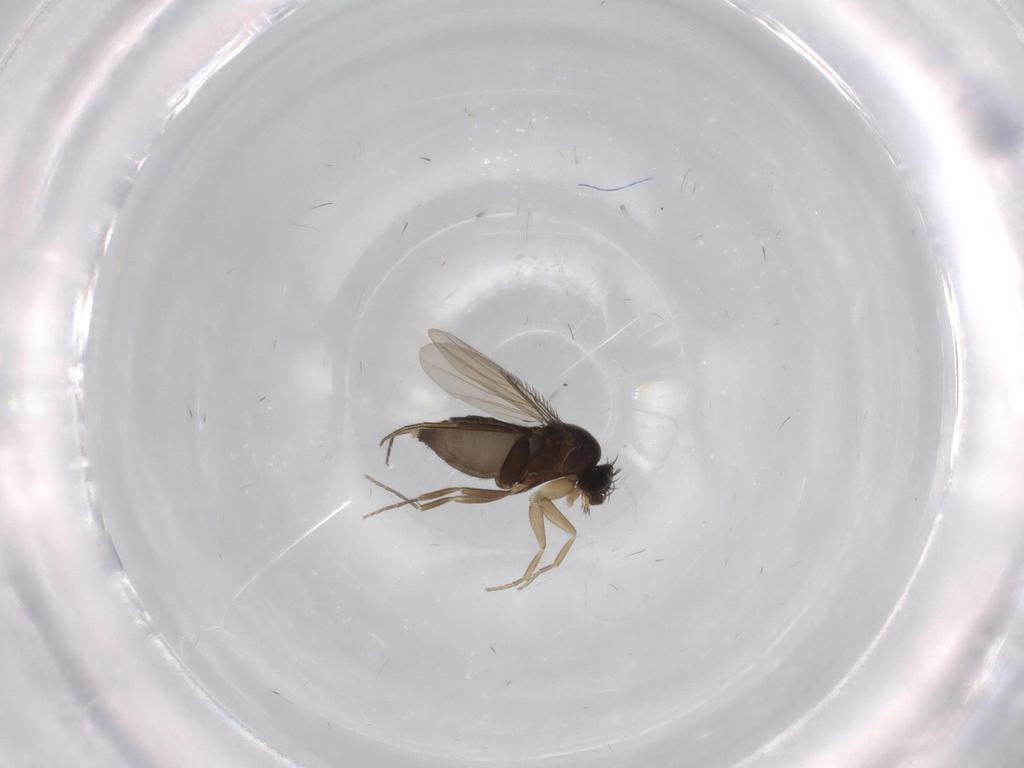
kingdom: Animalia
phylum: Arthropoda
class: Insecta
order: Diptera
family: Phoridae
